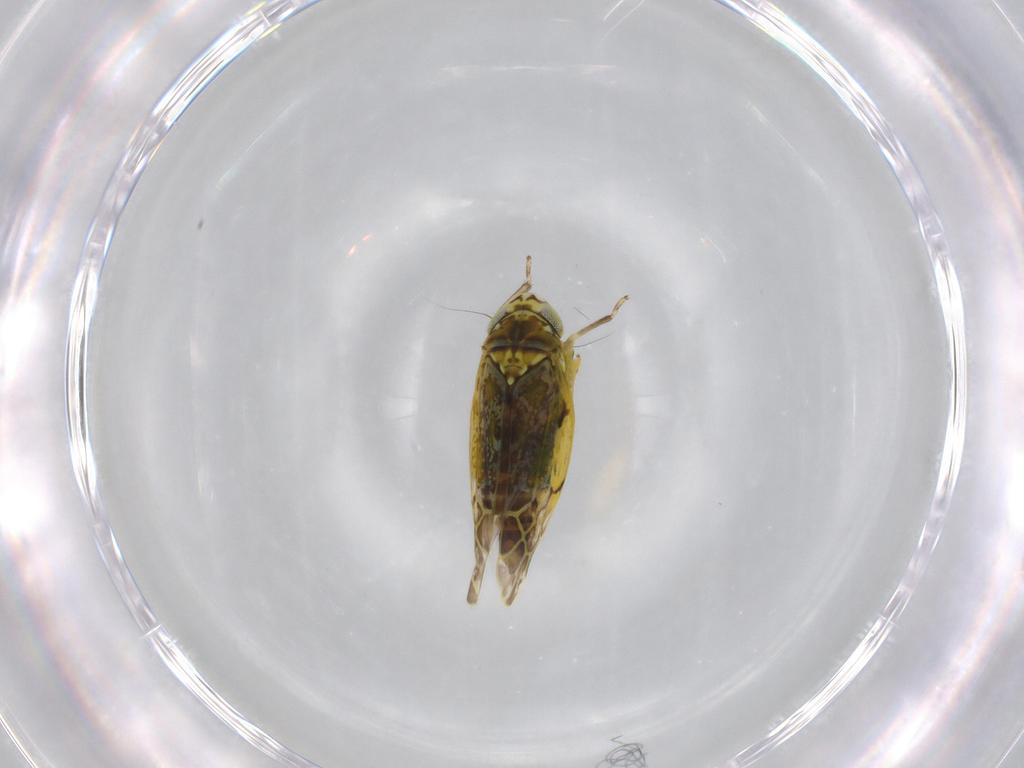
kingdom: Animalia
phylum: Arthropoda
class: Insecta
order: Hemiptera
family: Cicadellidae
